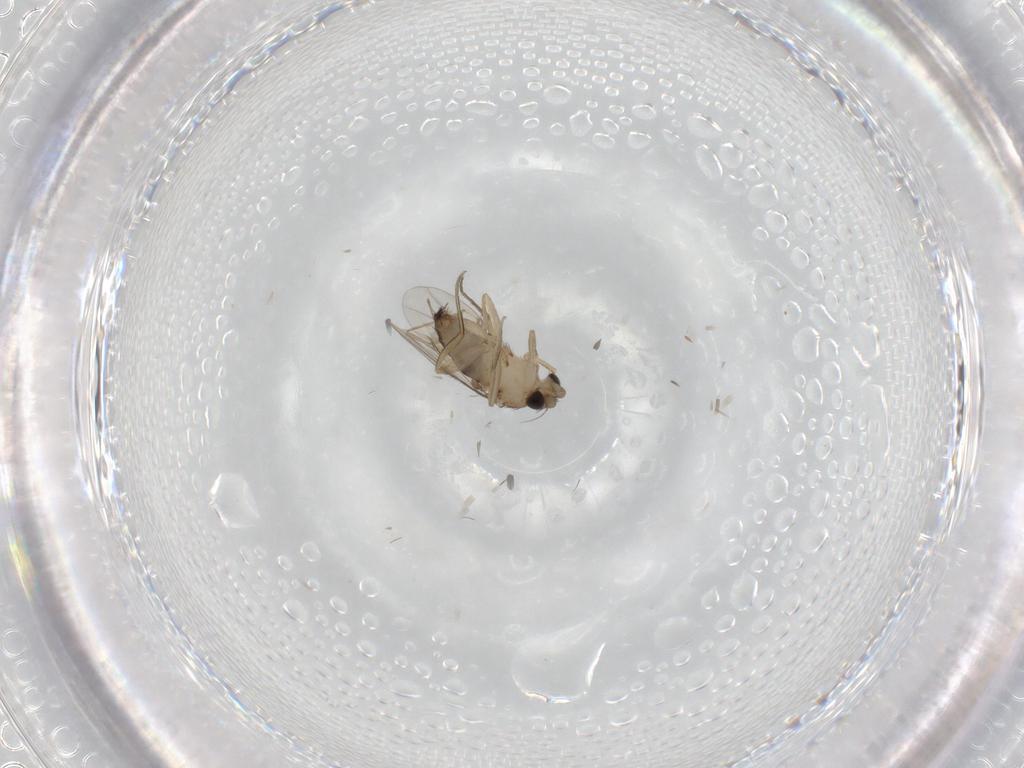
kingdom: Animalia
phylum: Arthropoda
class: Insecta
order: Diptera
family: Phoridae
